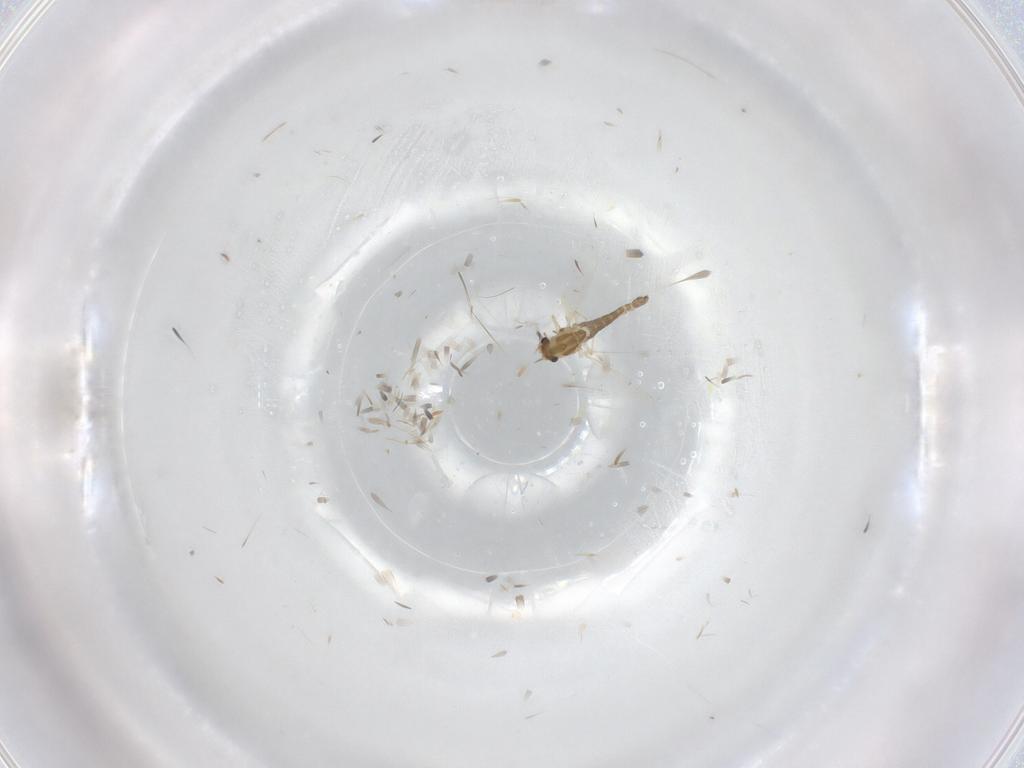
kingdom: Animalia
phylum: Arthropoda
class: Insecta
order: Diptera
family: Chironomidae
